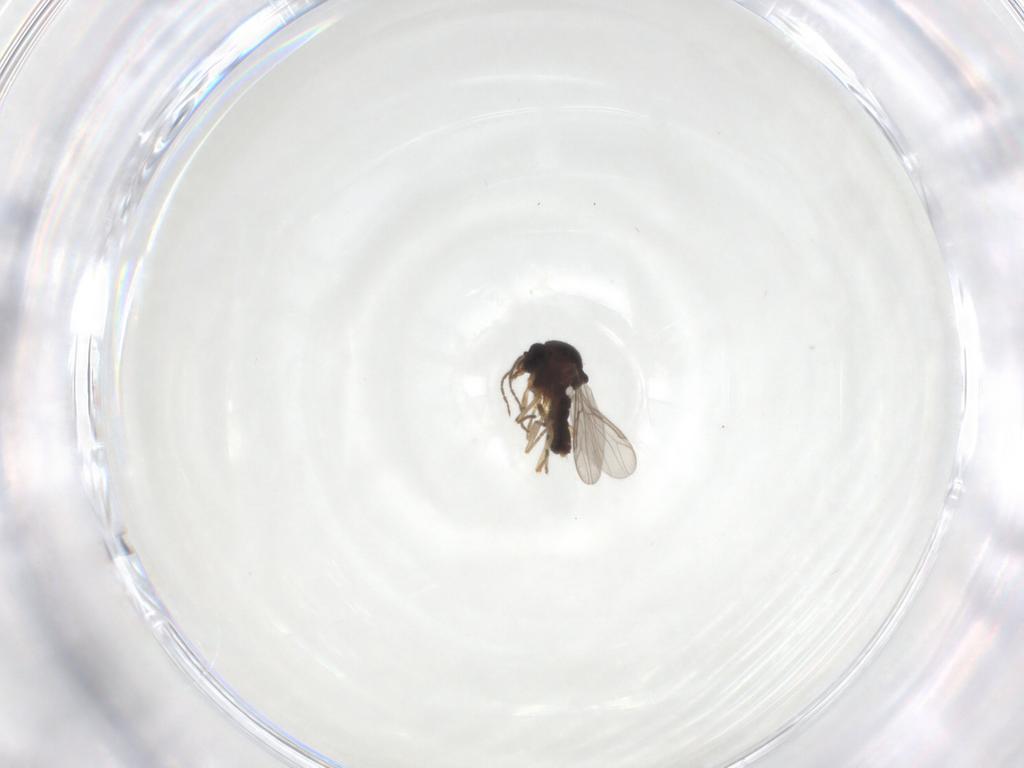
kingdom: Animalia
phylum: Arthropoda
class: Insecta
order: Diptera
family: Ceratopogonidae
